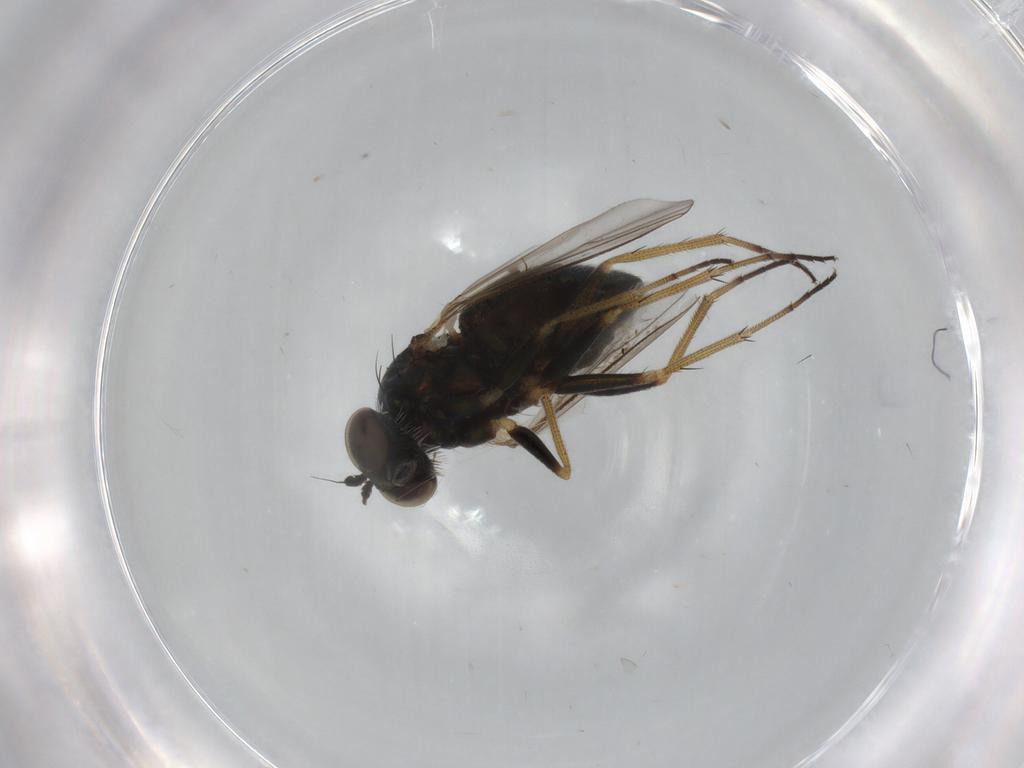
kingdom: Animalia
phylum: Arthropoda
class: Insecta
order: Diptera
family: Dolichopodidae
